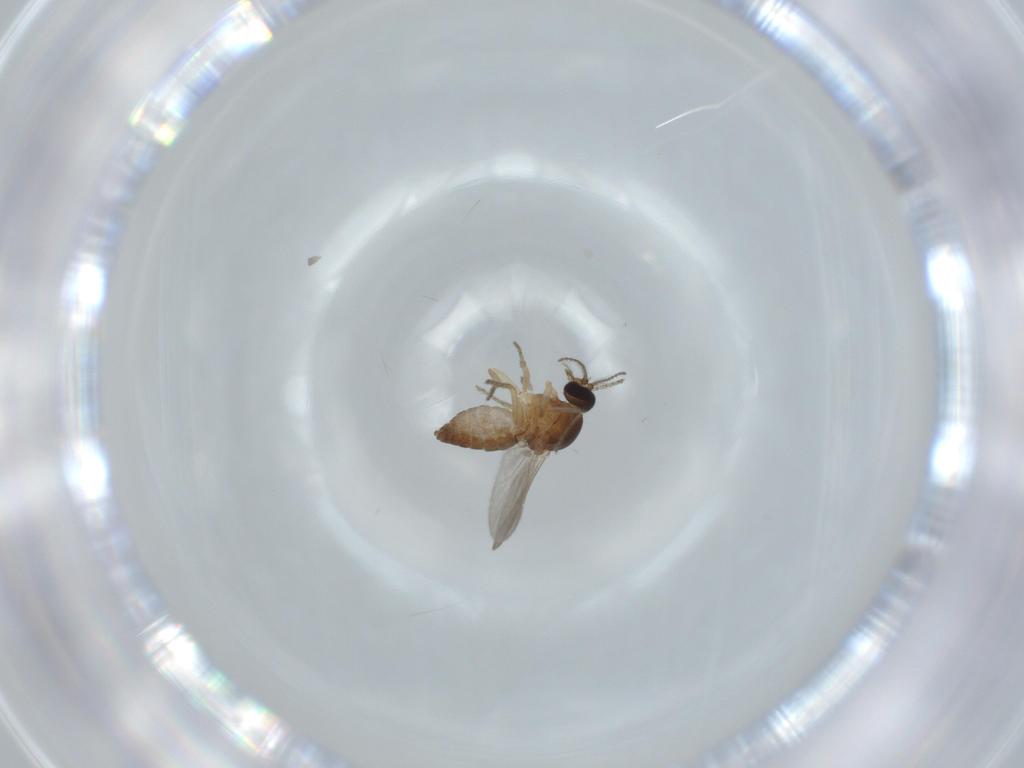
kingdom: Animalia
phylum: Arthropoda
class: Insecta
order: Diptera
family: Ceratopogonidae
